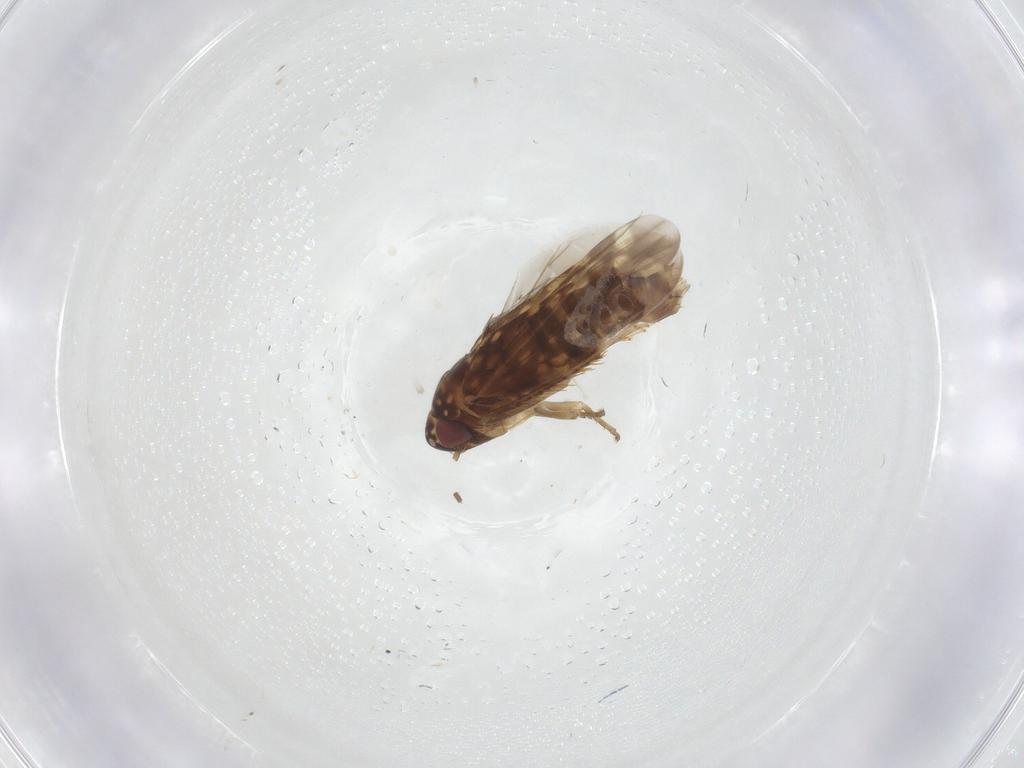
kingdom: Animalia
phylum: Arthropoda
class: Insecta
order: Hemiptera
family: Cicadellidae
